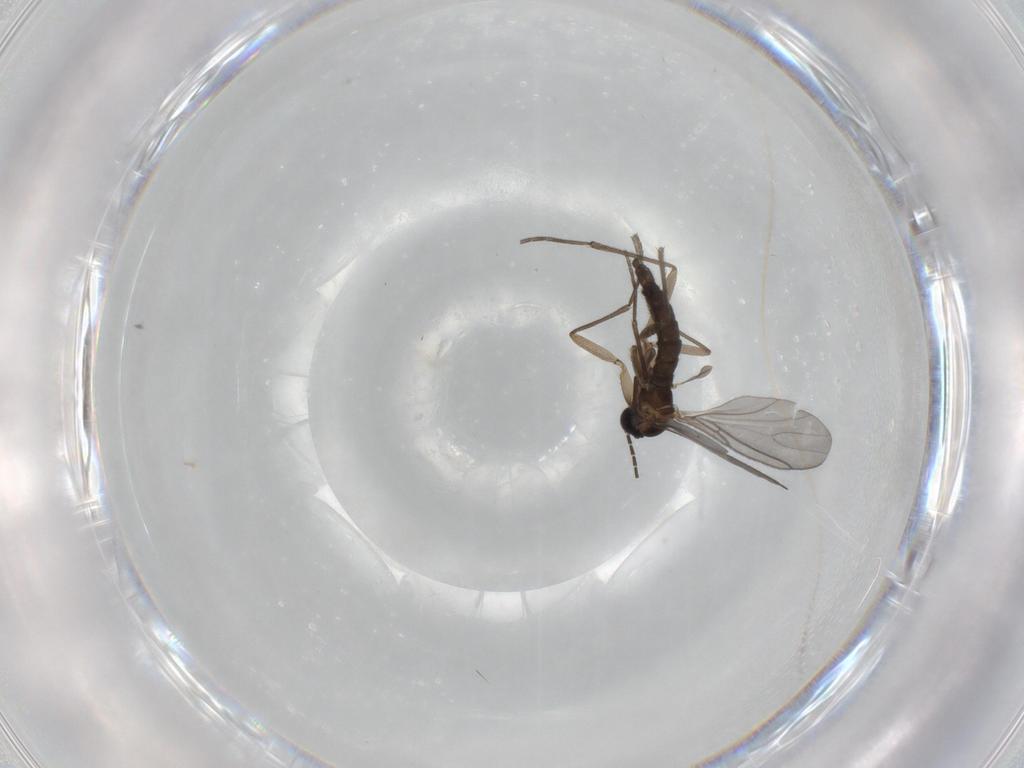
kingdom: Animalia
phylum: Arthropoda
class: Insecta
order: Diptera
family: Sciaridae
